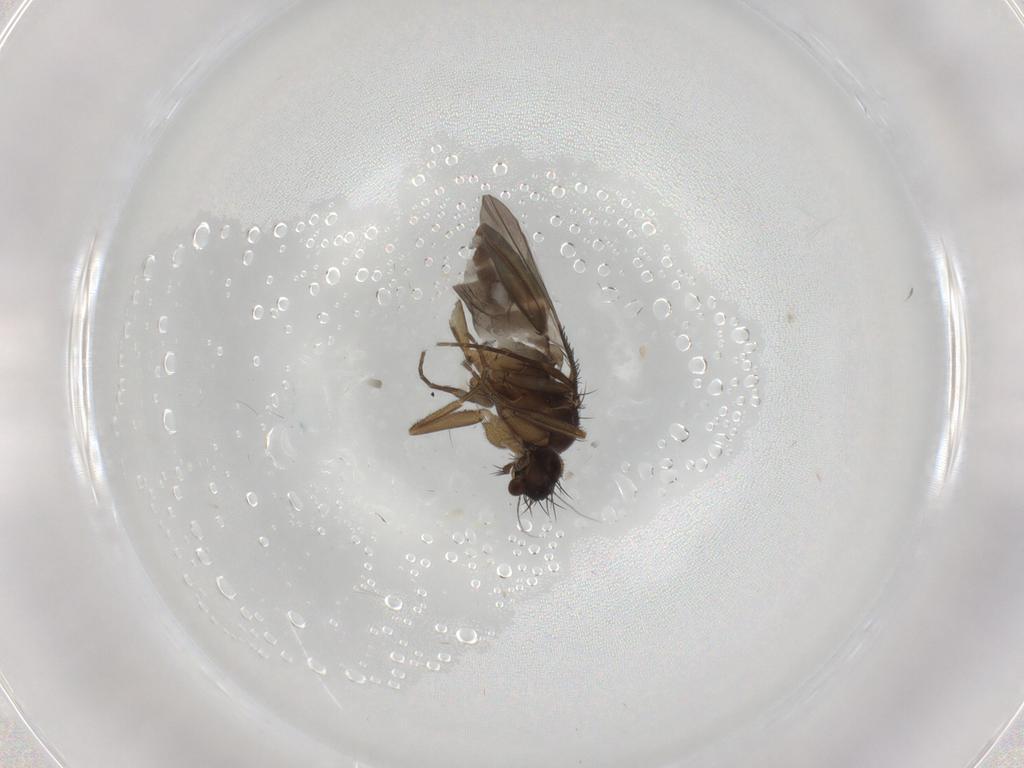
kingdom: Animalia
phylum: Arthropoda
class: Insecta
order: Diptera
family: Phoridae
